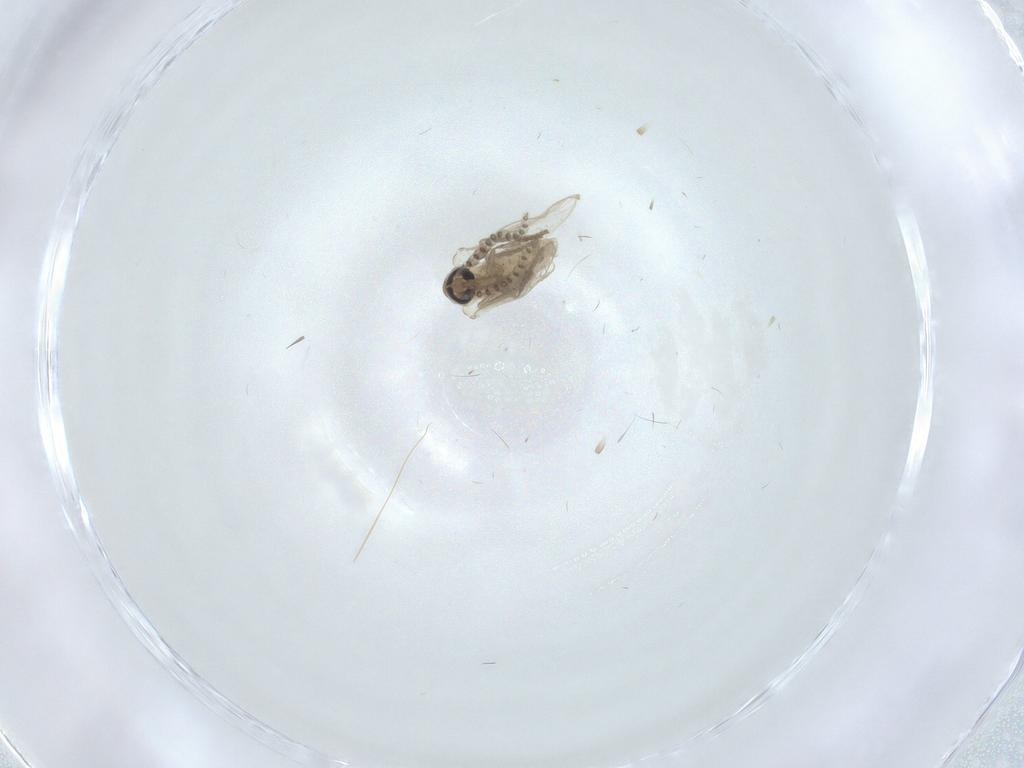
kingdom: Animalia
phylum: Arthropoda
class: Insecta
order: Diptera
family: Psychodidae
